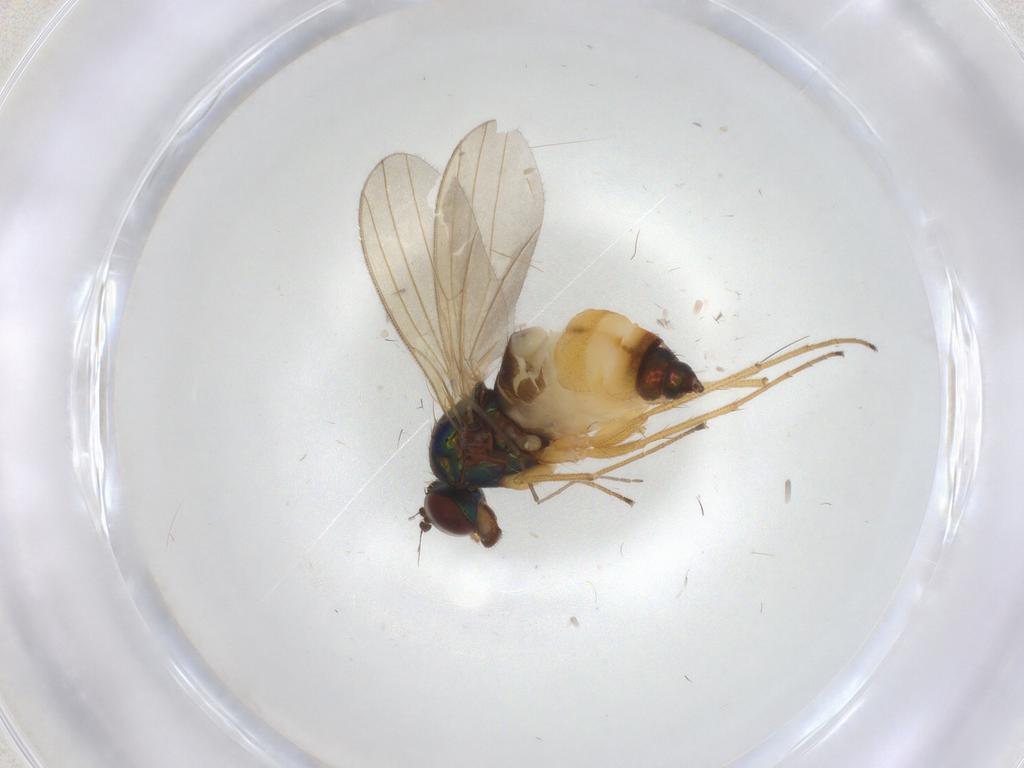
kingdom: Animalia
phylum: Arthropoda
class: Insecta
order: Diptera
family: Dolichopodidae
